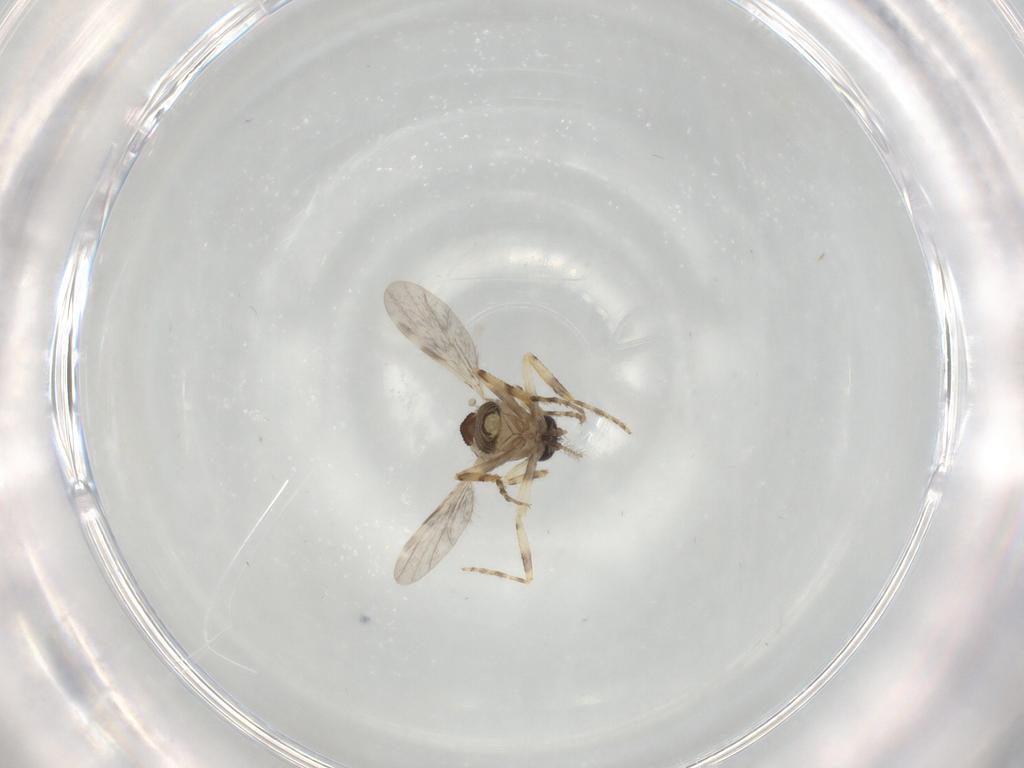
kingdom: Animalia
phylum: Arthropoda
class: Insecta
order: Diptera
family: Ceratopogonidae
